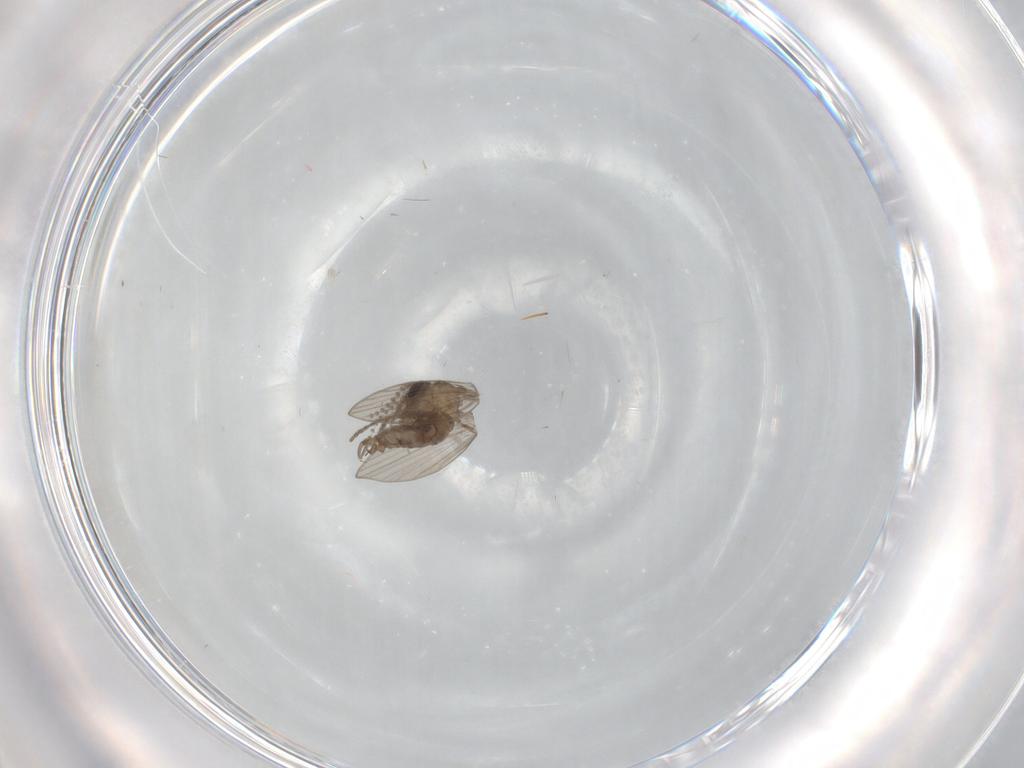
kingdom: Animalia
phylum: Arthropoda
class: Insecta
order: Diptera
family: Psychodidae
